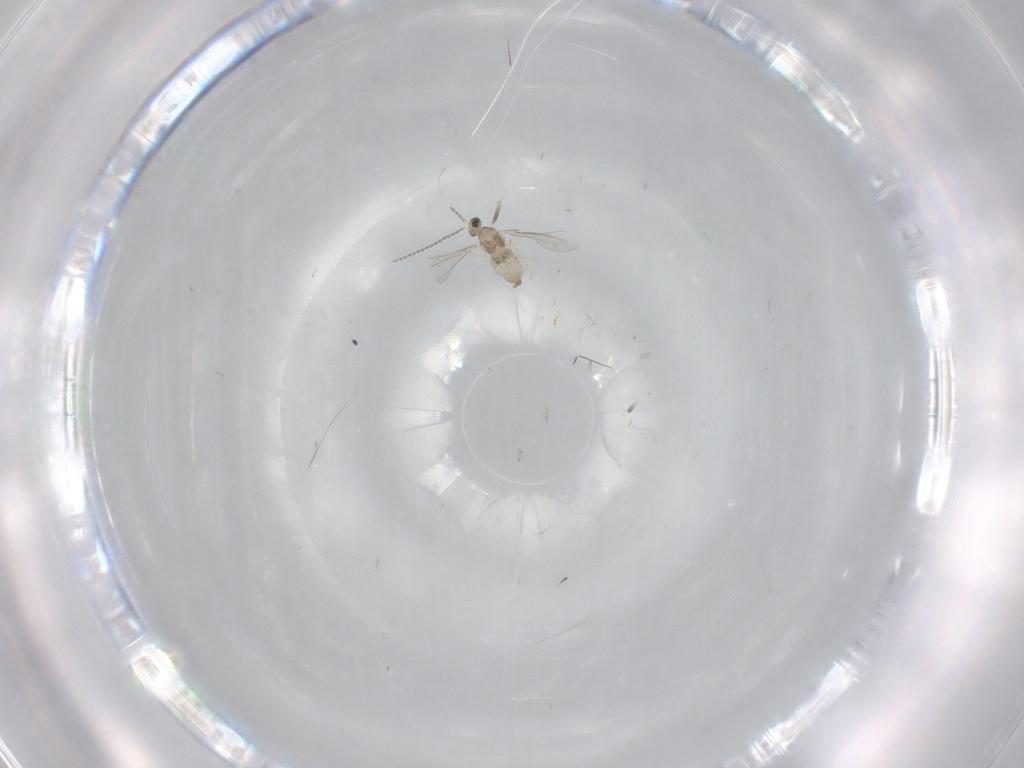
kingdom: Animalia
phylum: Arthropoda
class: Insecta
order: Diptera
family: Cecidomyiidae
